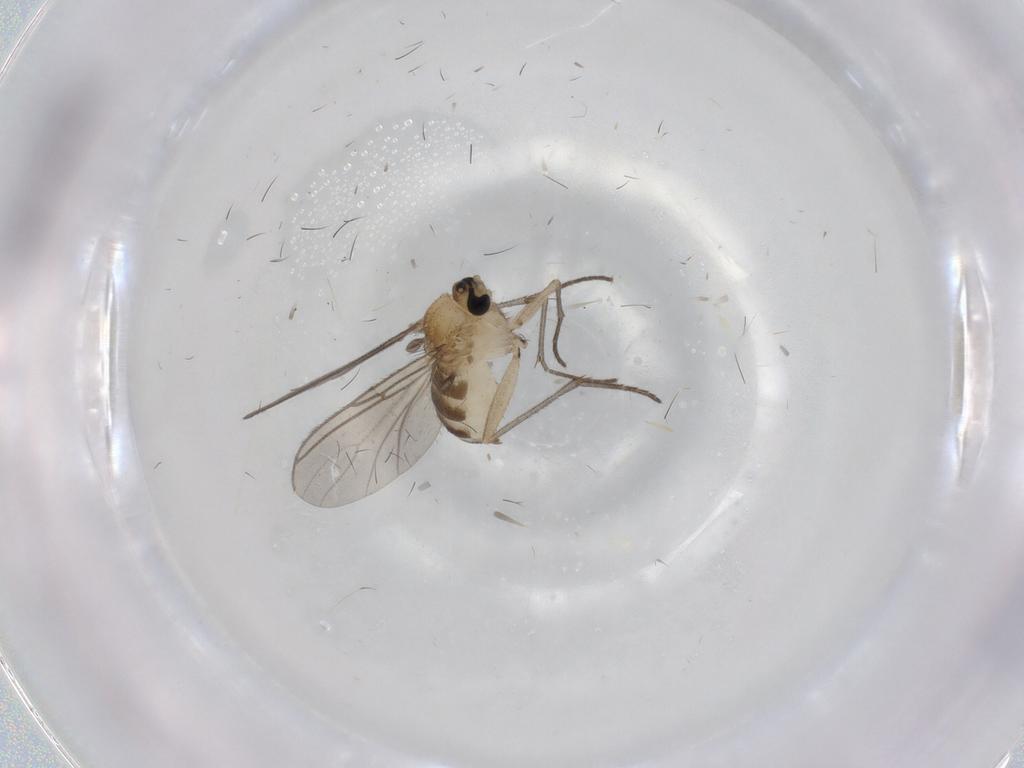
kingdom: Animalia
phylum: Arthropoda
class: Insecta
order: Diptera
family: Sciaridae
